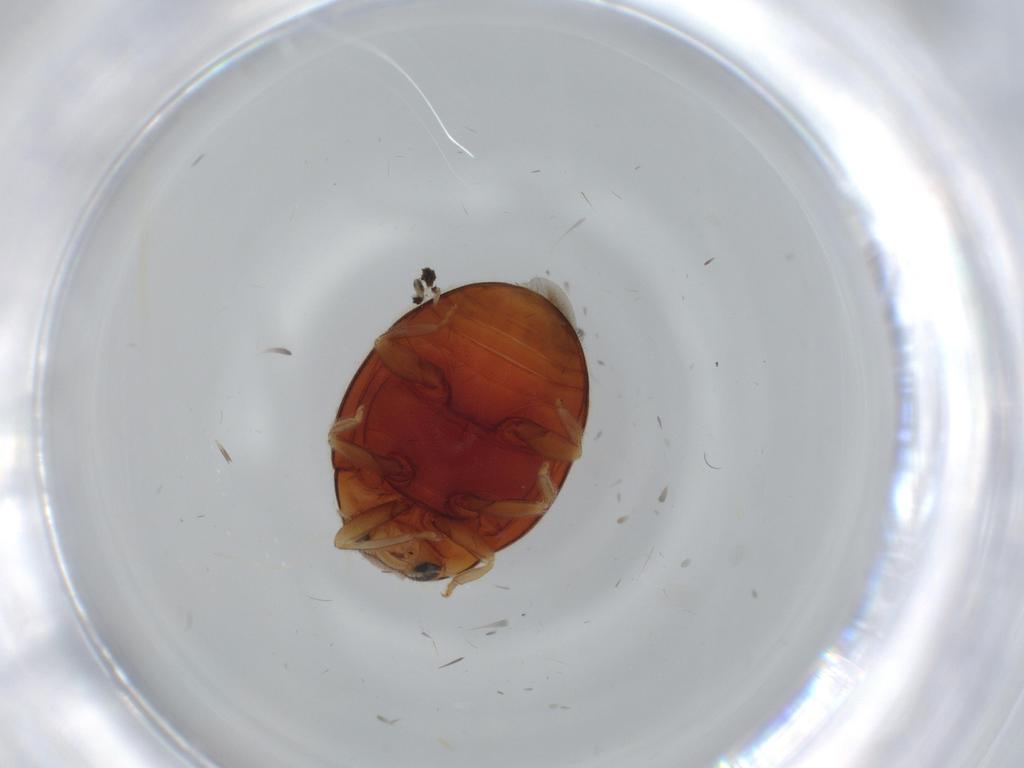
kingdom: Animalia
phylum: Arthropoda
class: Insecta
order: Coleoptera
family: Coccinellidae
